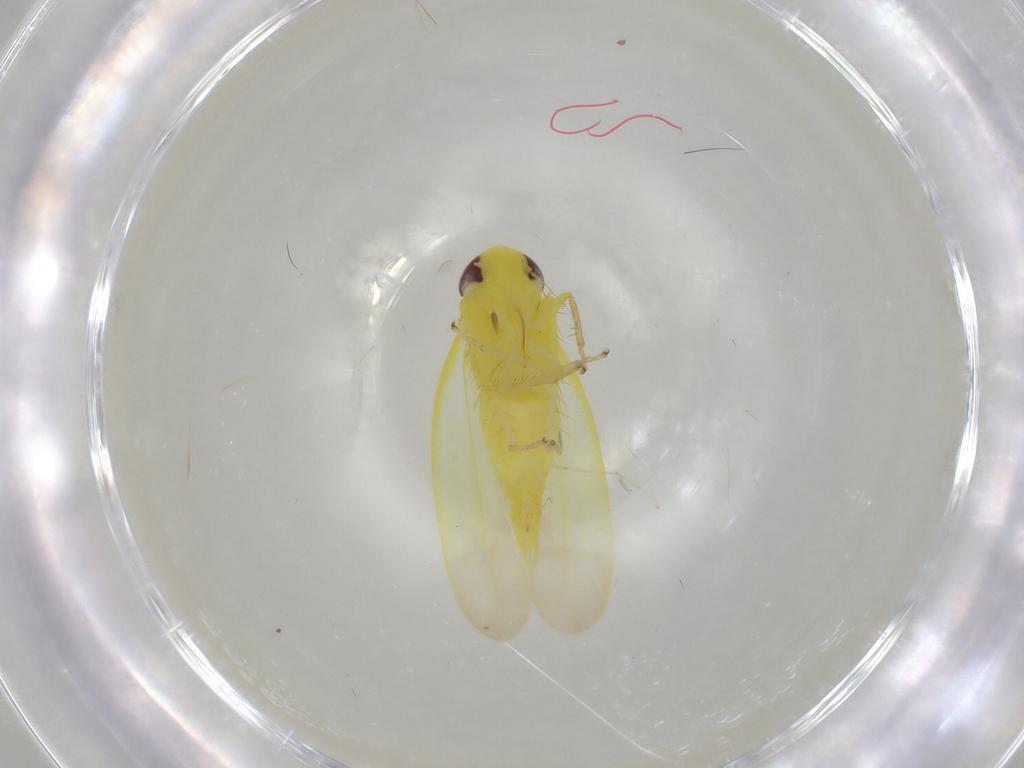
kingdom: Animalia
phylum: Arthropoda
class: Insecta
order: Hemiptera
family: Cicadellidae
